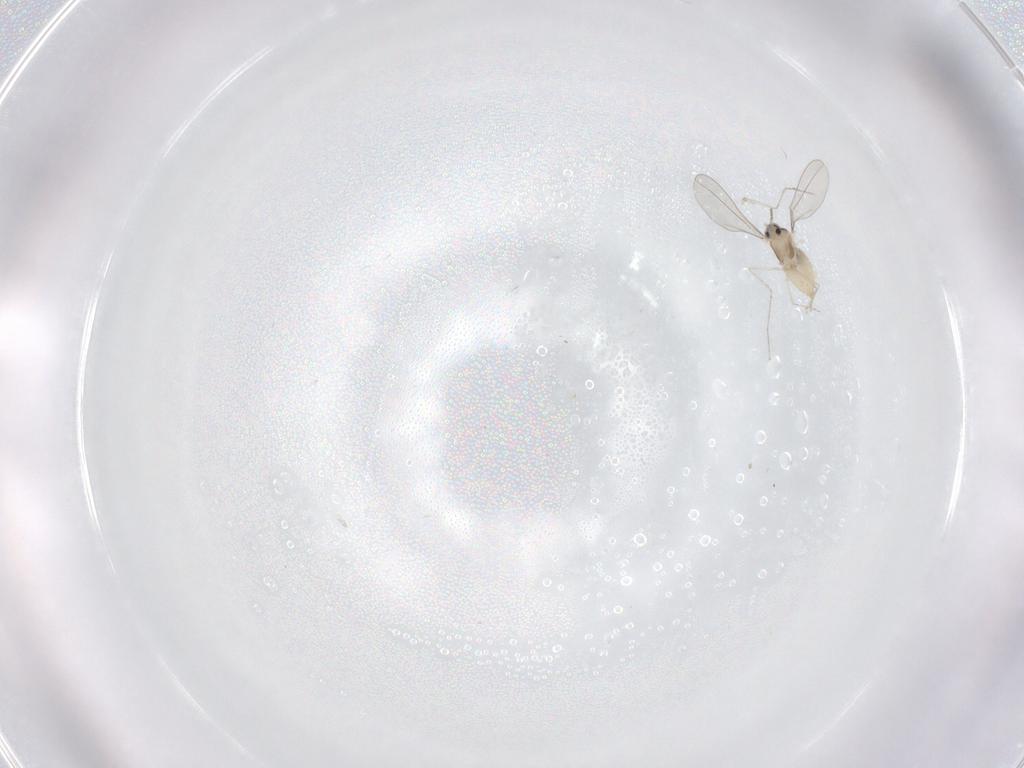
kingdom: Animalia
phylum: Arthropoda
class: Insecta
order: Diptera
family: Cecidomyiidae
